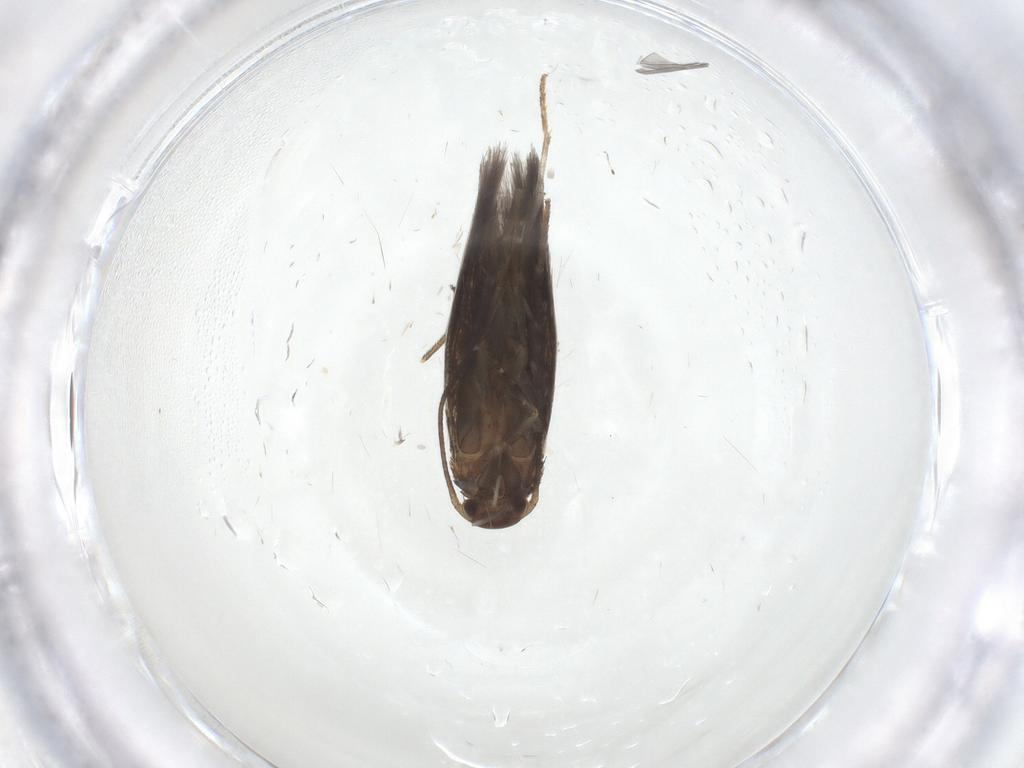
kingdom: Animalia
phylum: Arthropoda
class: Insecta
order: Lepidoptera
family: Elachistidae
